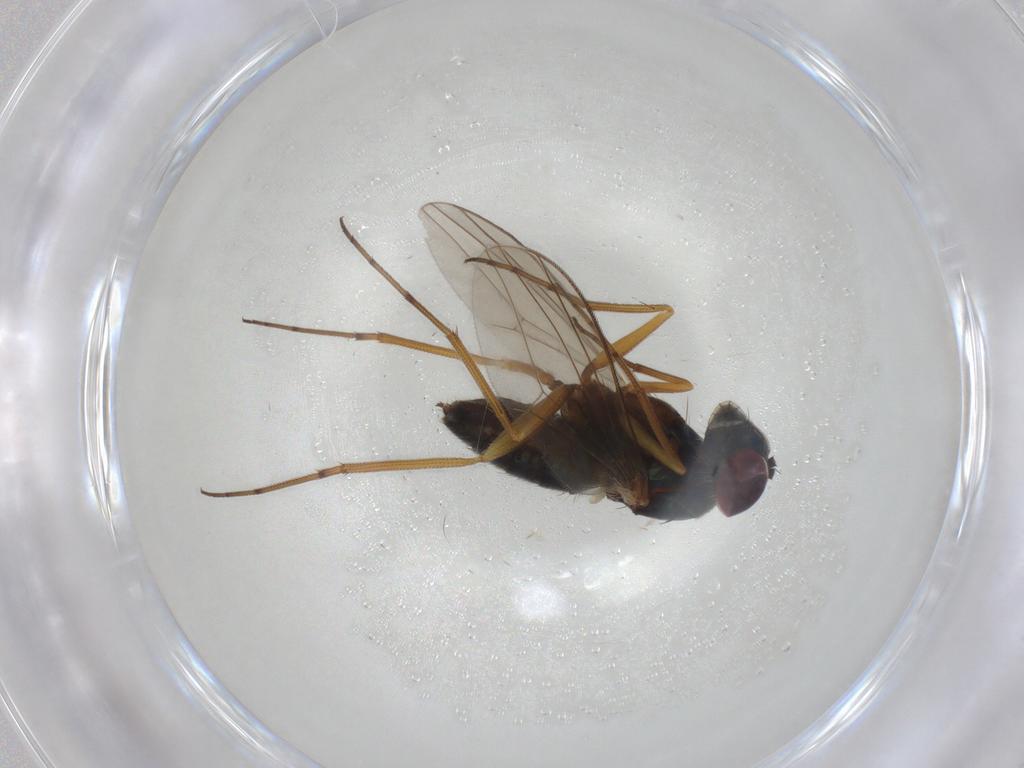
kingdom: Animalia
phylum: Arthropoda
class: Insecta
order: Diptera
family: Dolichopodidae
